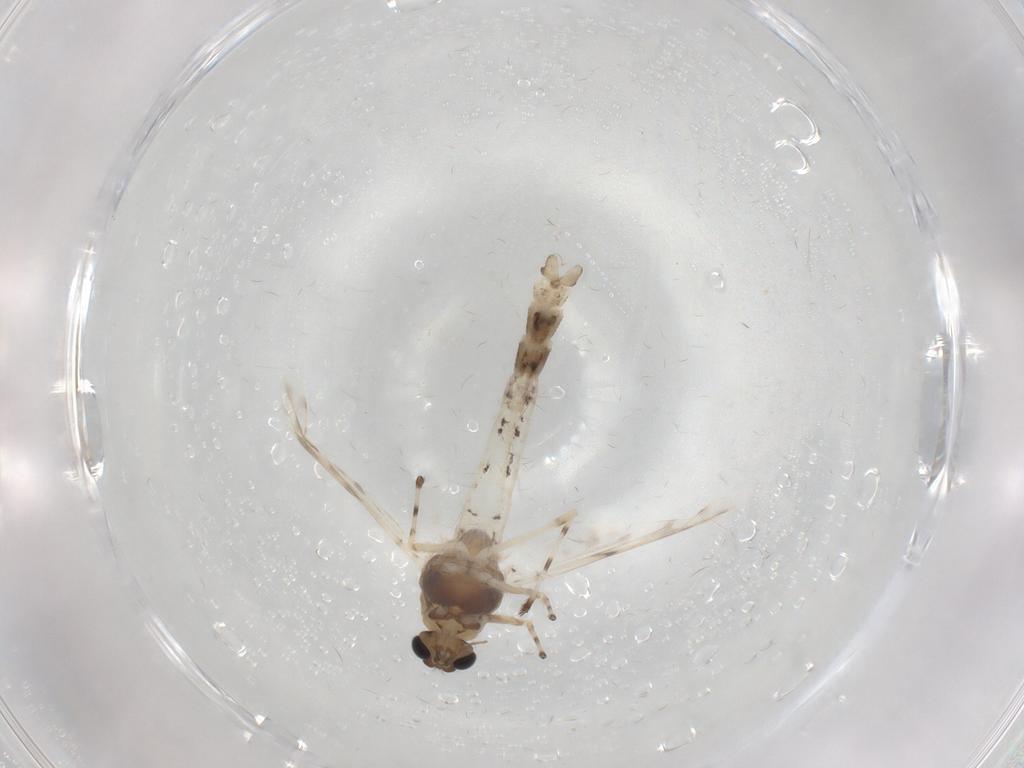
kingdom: Animalia
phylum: Arthropoda
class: Insecta
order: Diptera
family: Chironomidae
